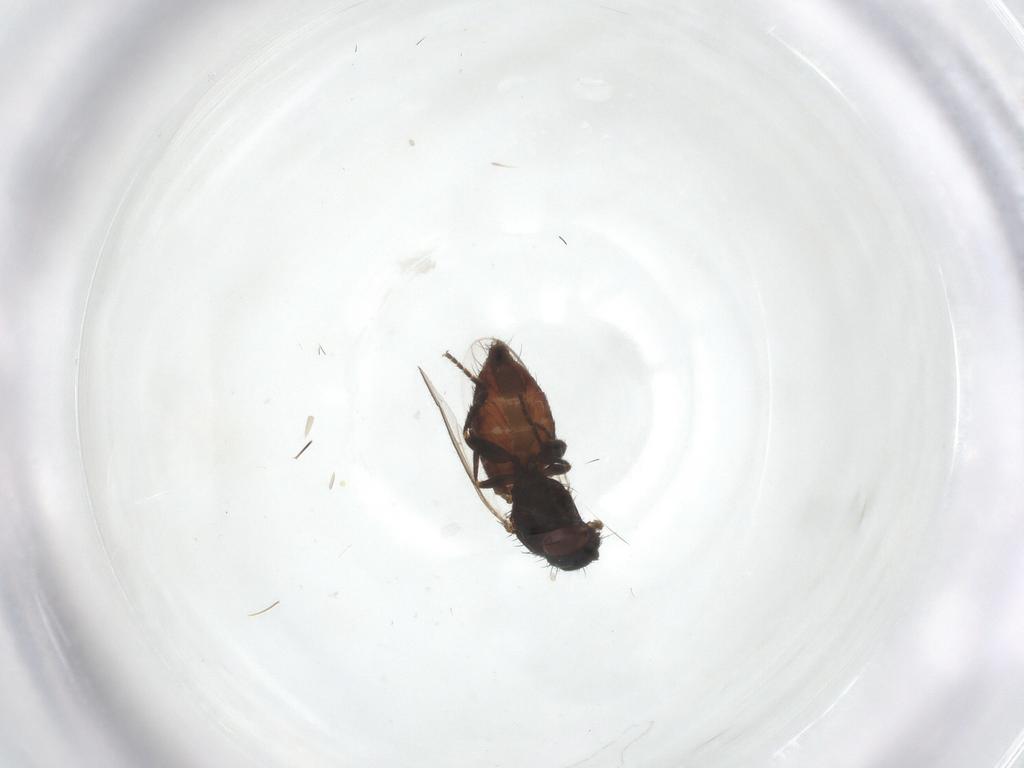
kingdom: Animalia
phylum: Arthropoda
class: Insecta
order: Diptera
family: Milichiidae
